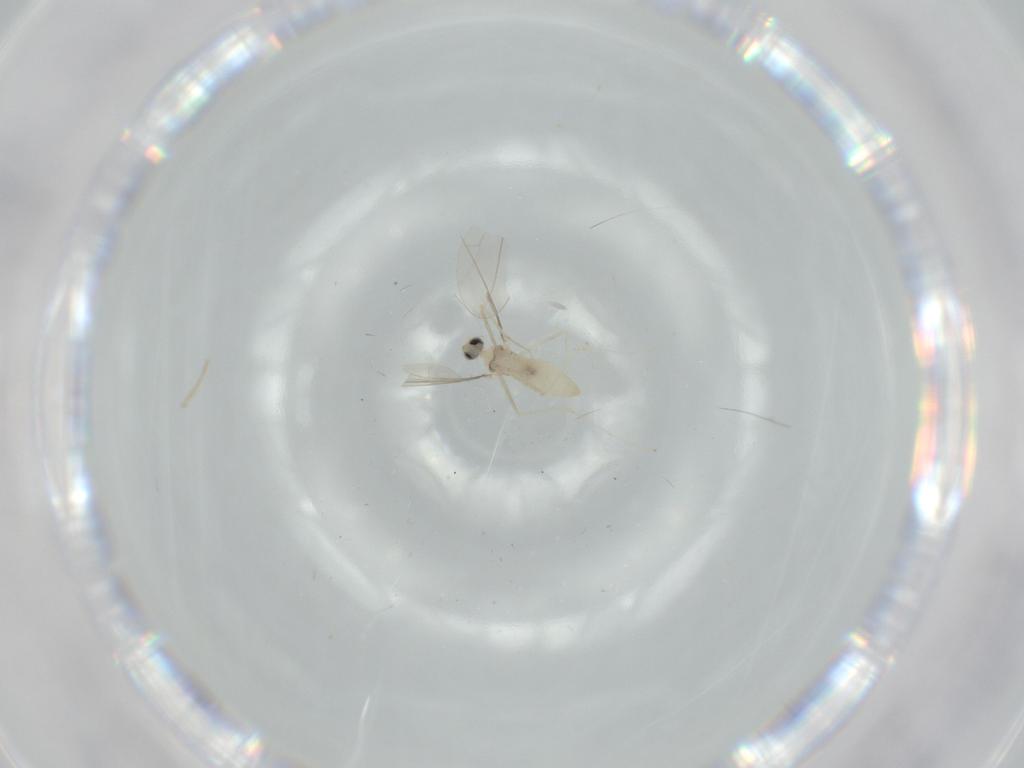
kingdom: Animalia
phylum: Arthropoda
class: Insecta
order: Diptera
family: Cecidomyiidae
